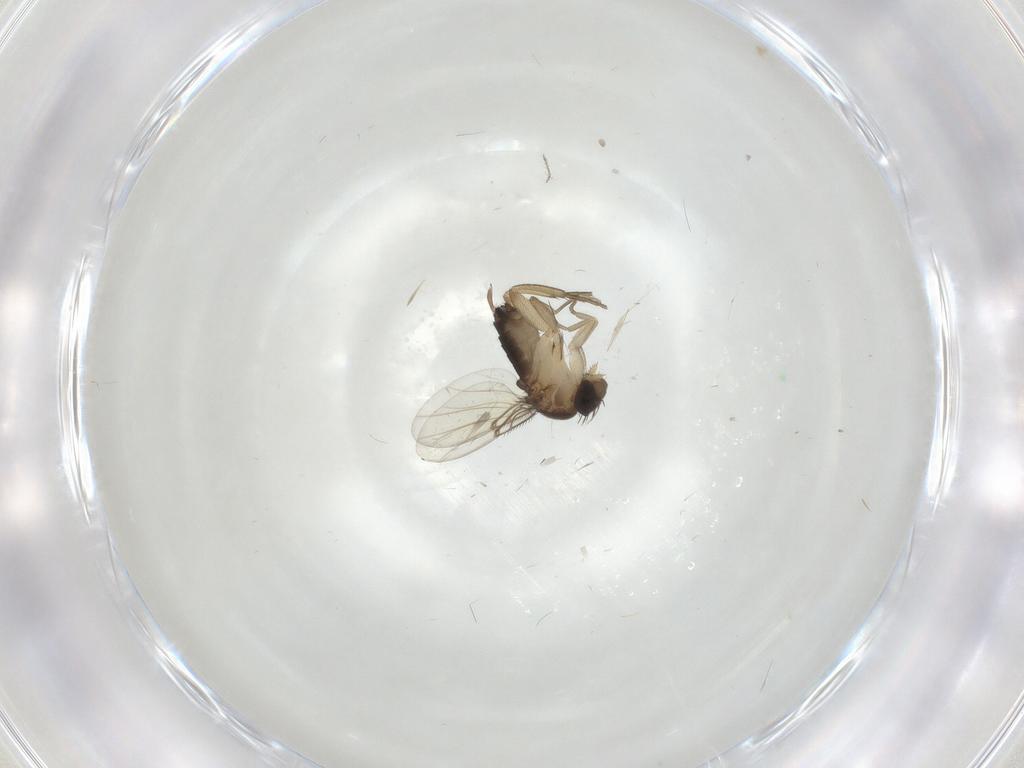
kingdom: Animalia
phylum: Arthropoda
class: Insecta
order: Diptera
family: Chironomidae
